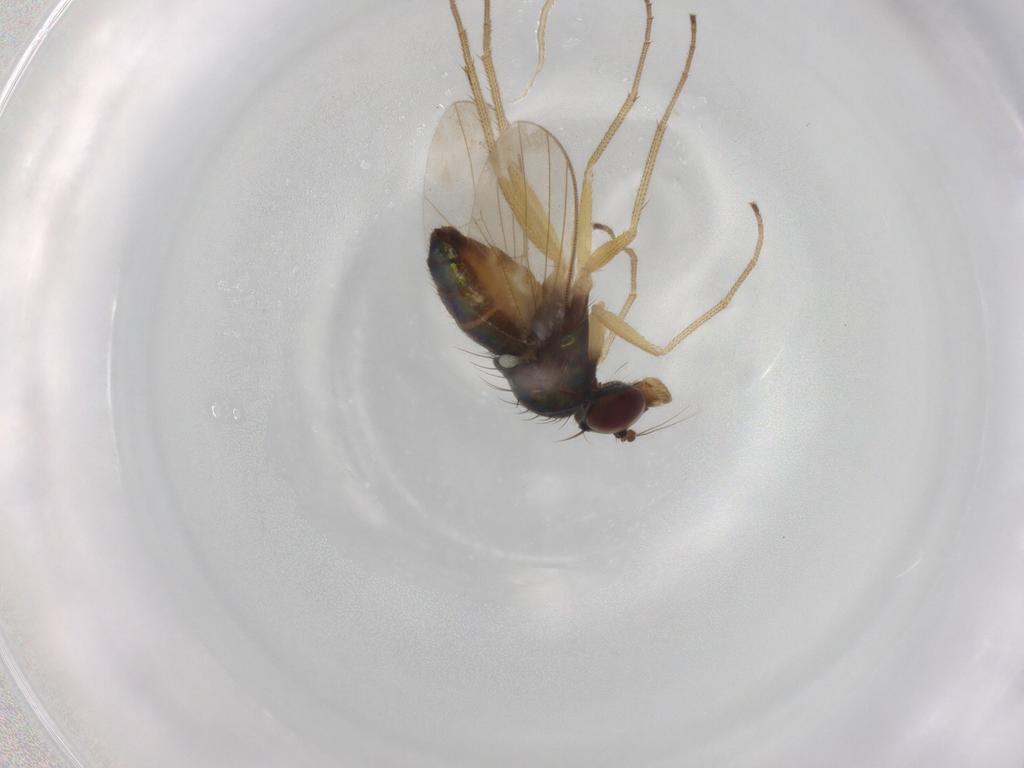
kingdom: Animalia
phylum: Arthropoda
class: Insecta
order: Diptera
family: Dolichopodidae
